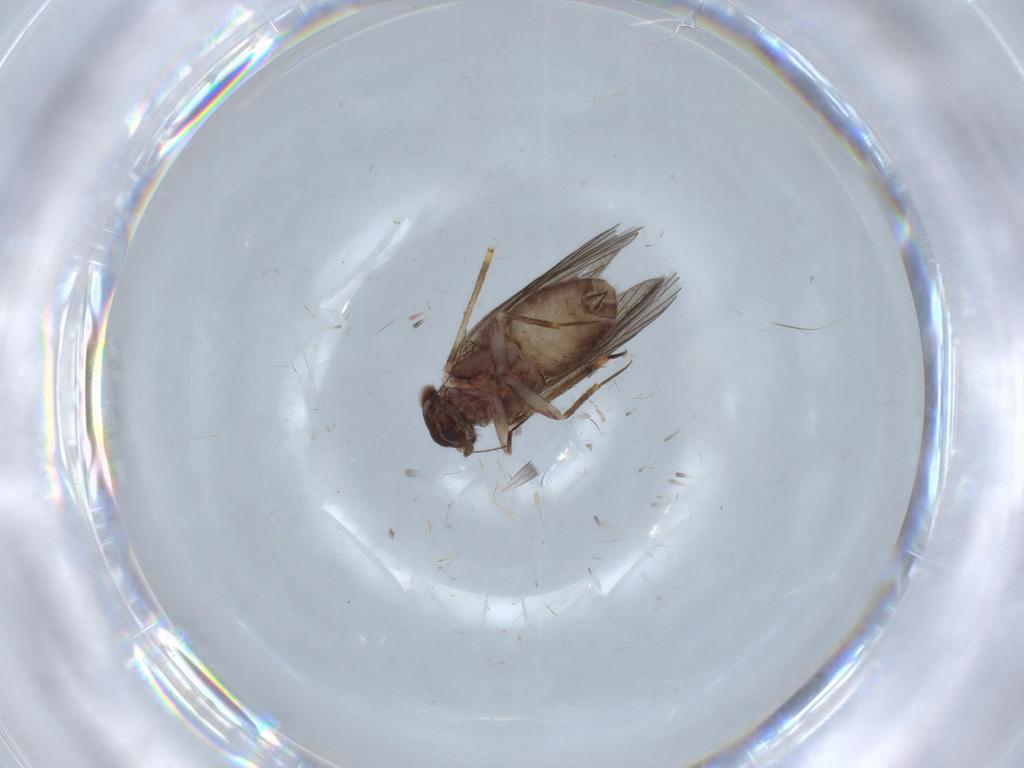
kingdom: Animalia
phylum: Arthropoda
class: Insecta
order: Psocodea
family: Lepidopsocidae
